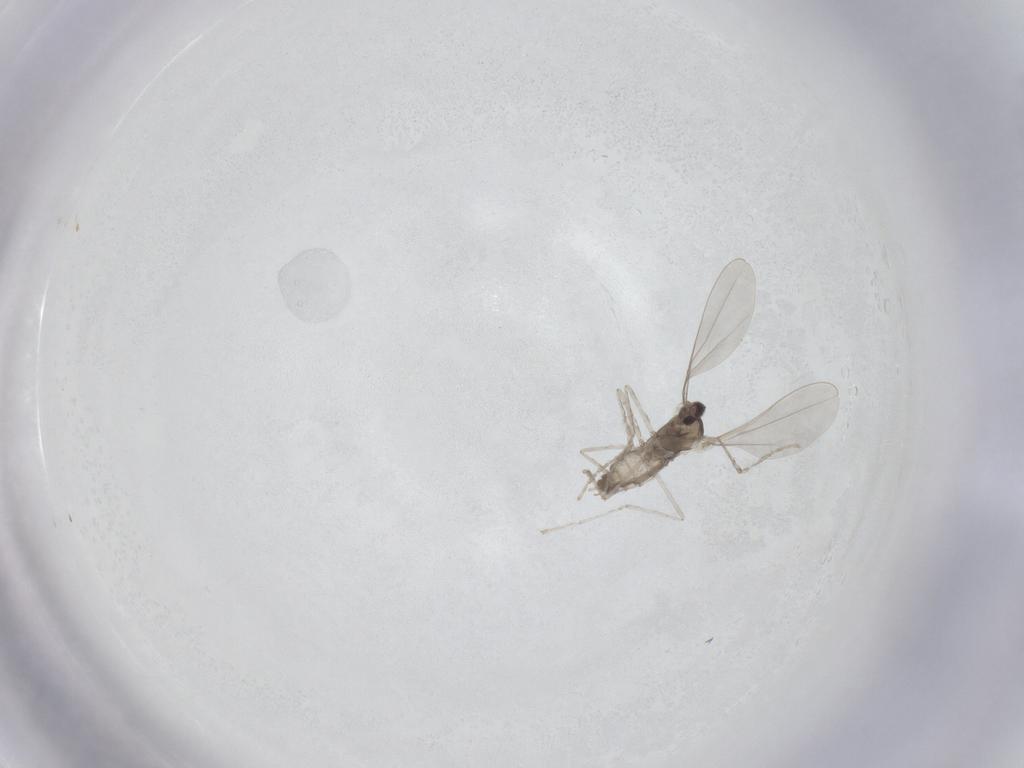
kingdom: Animalia
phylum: Arthropoda
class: Insecta
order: Diptera
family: Cecidomyiidae
